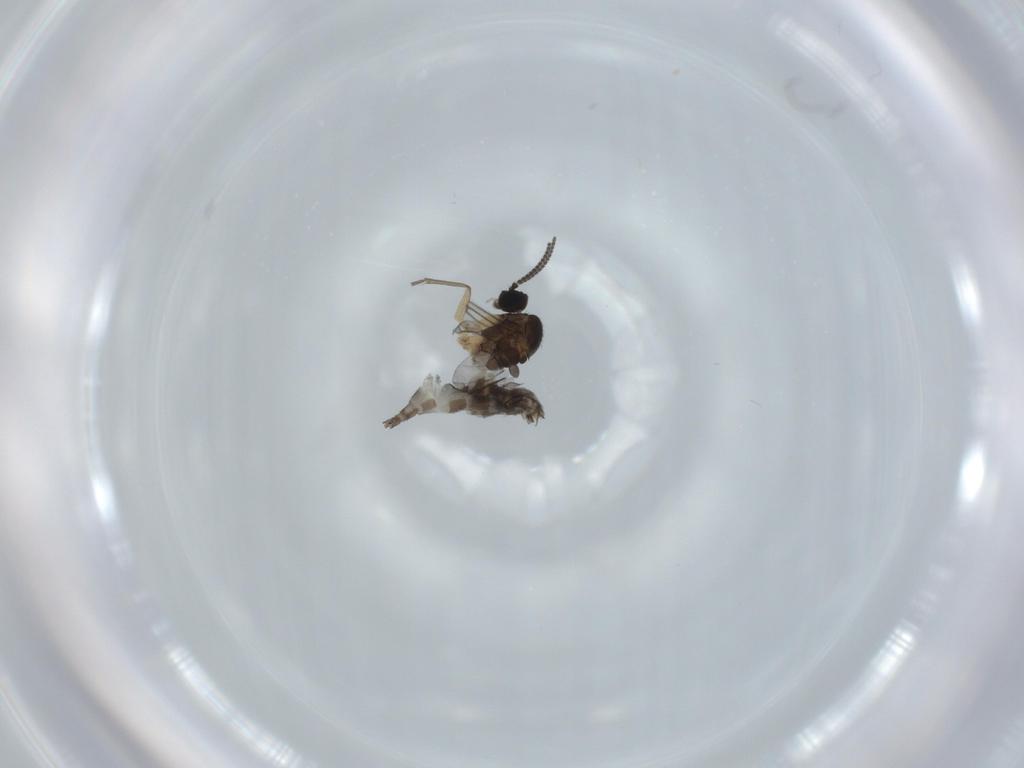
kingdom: Animalia
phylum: Arthropoda
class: Insecta
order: Diptera
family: Sciaridae
